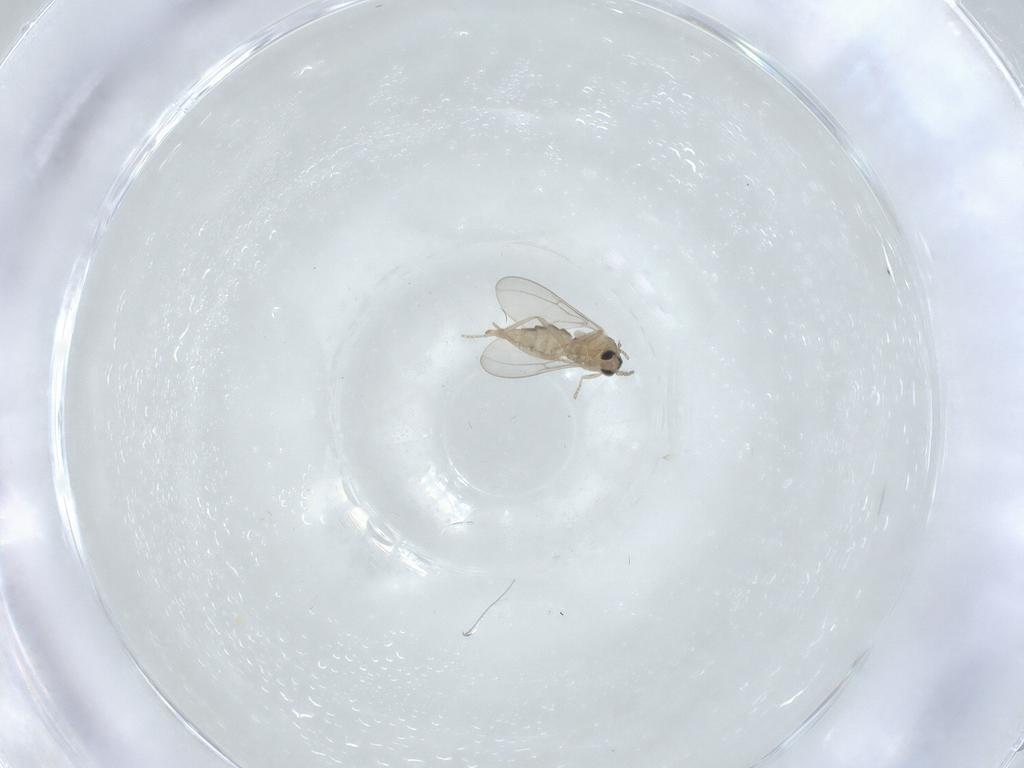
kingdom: Animalia
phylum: Arthropoda
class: Insecta
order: Diptera
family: Cecidomyiidae
